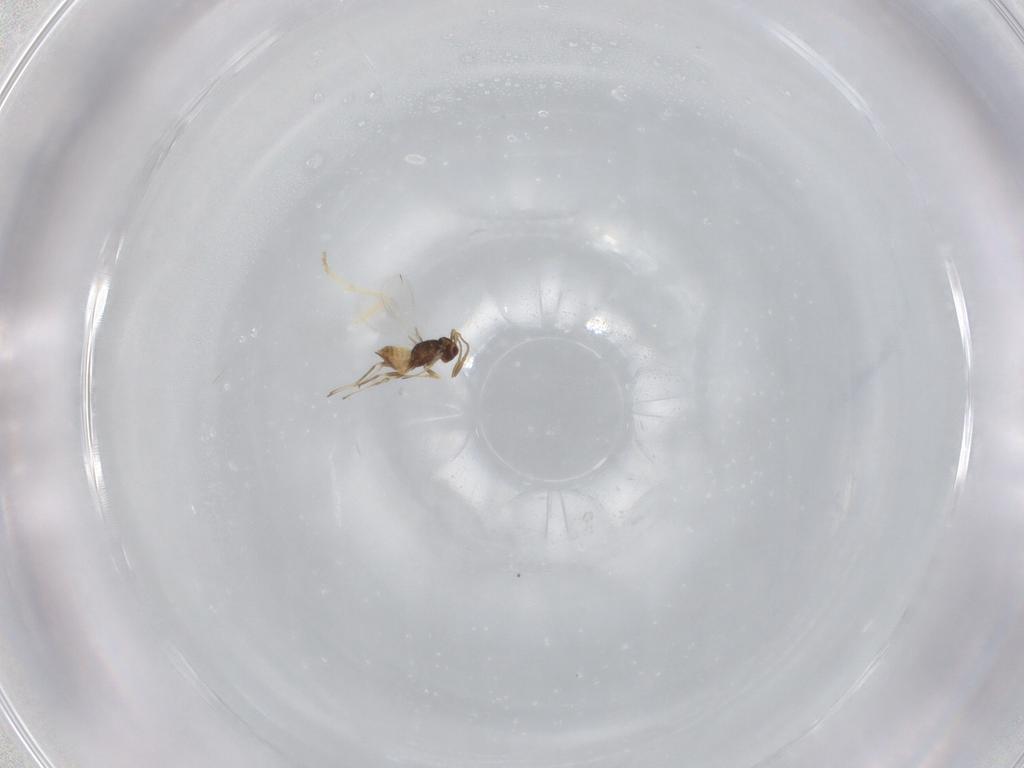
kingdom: Animalia
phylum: Arthropoda
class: Insecta
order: Hymenoptera
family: Mymaridae
